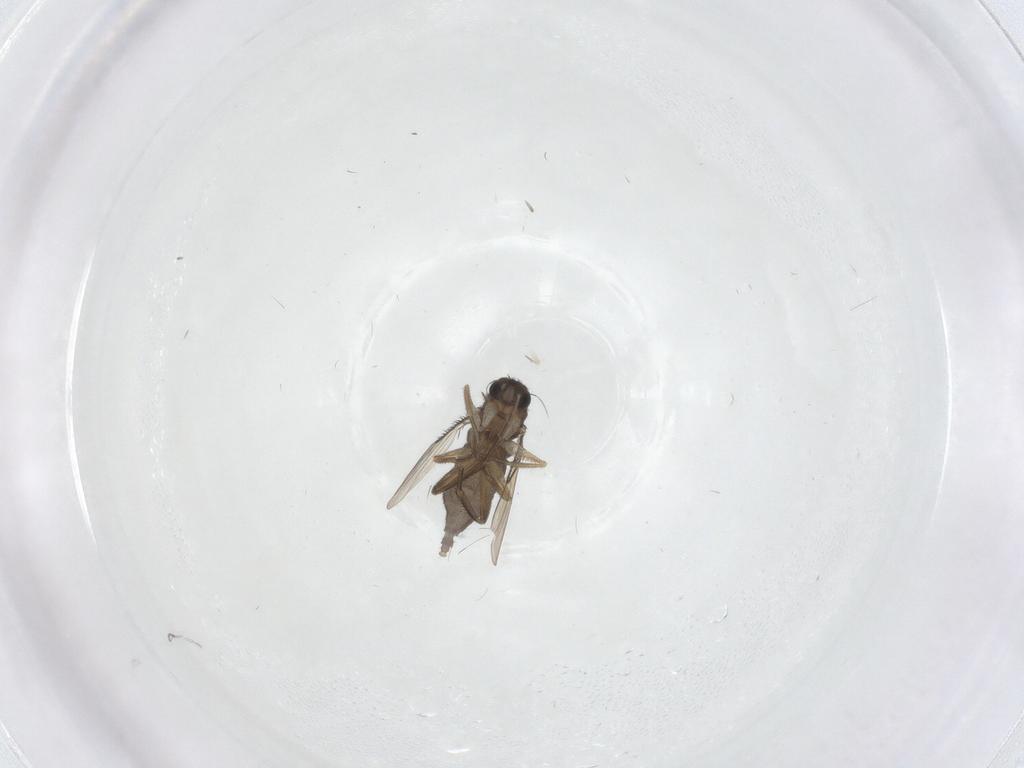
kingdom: Animalia
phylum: Arthropoda
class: Insecta
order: Diptera
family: Phoridae
